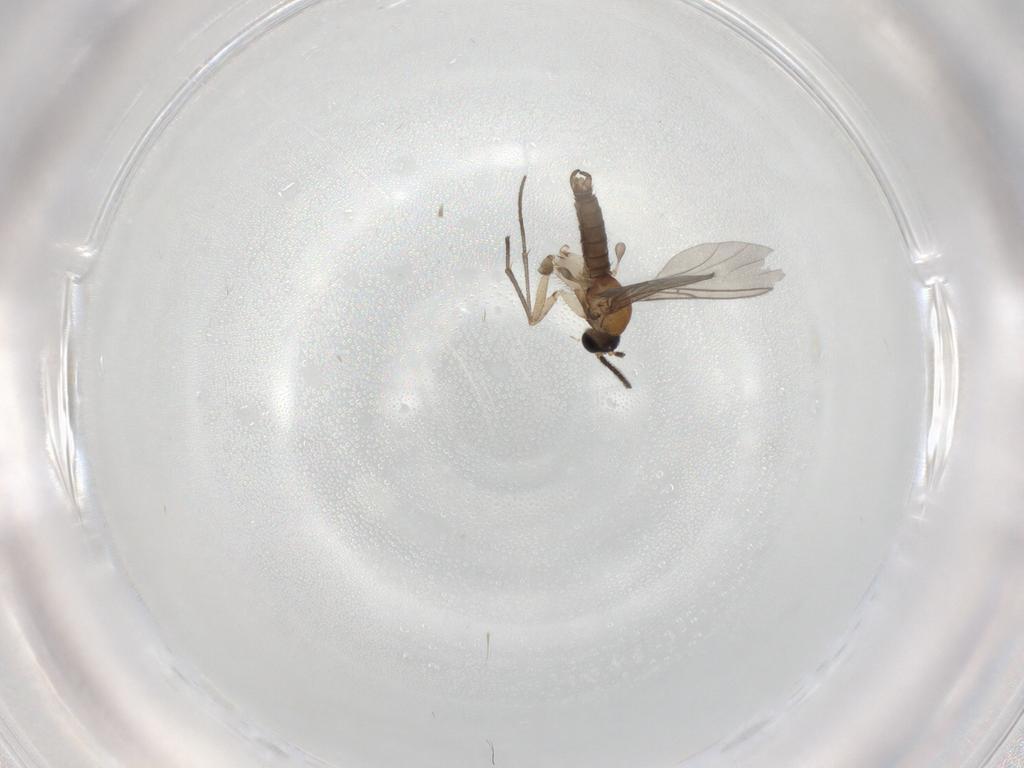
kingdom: Animalia
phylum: Arthropoda
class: Insecta
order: Diptera
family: Sciaridae
